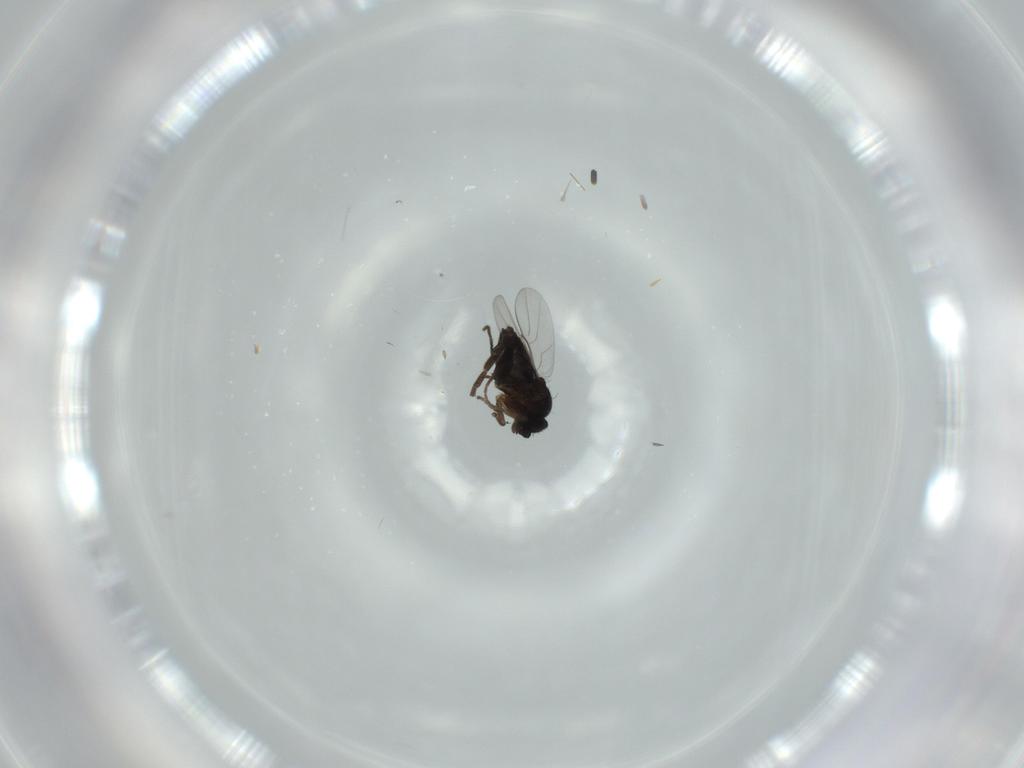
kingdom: Animalia
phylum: Arthropoda
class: Insecta
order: Diptera
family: Phoridae
